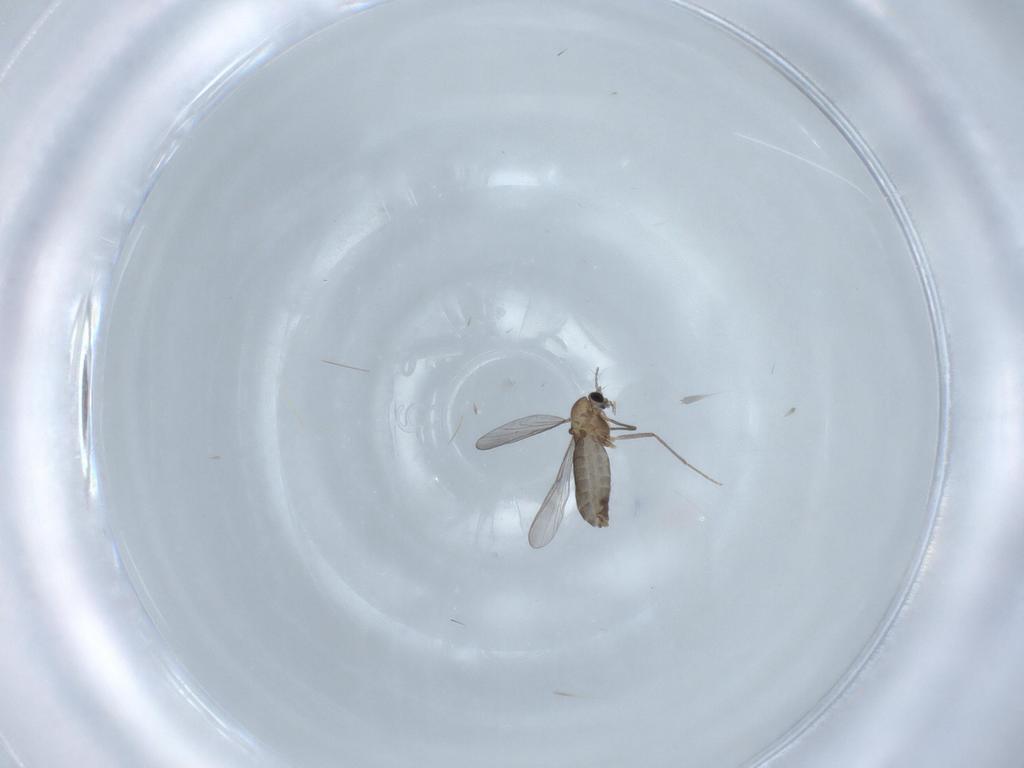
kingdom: Animalia
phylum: Arthropoda
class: Insecta
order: Diptera
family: Chironomidae
